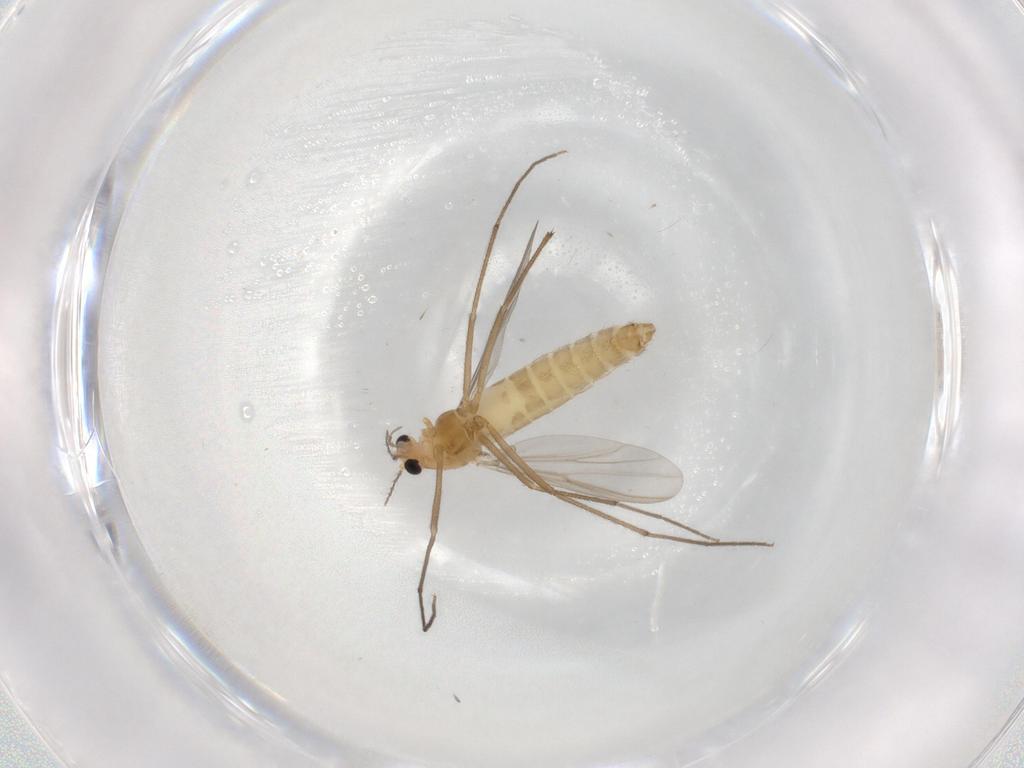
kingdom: Animalia
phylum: Arthropoda
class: Insecta
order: Diptera
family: Chironomidae
